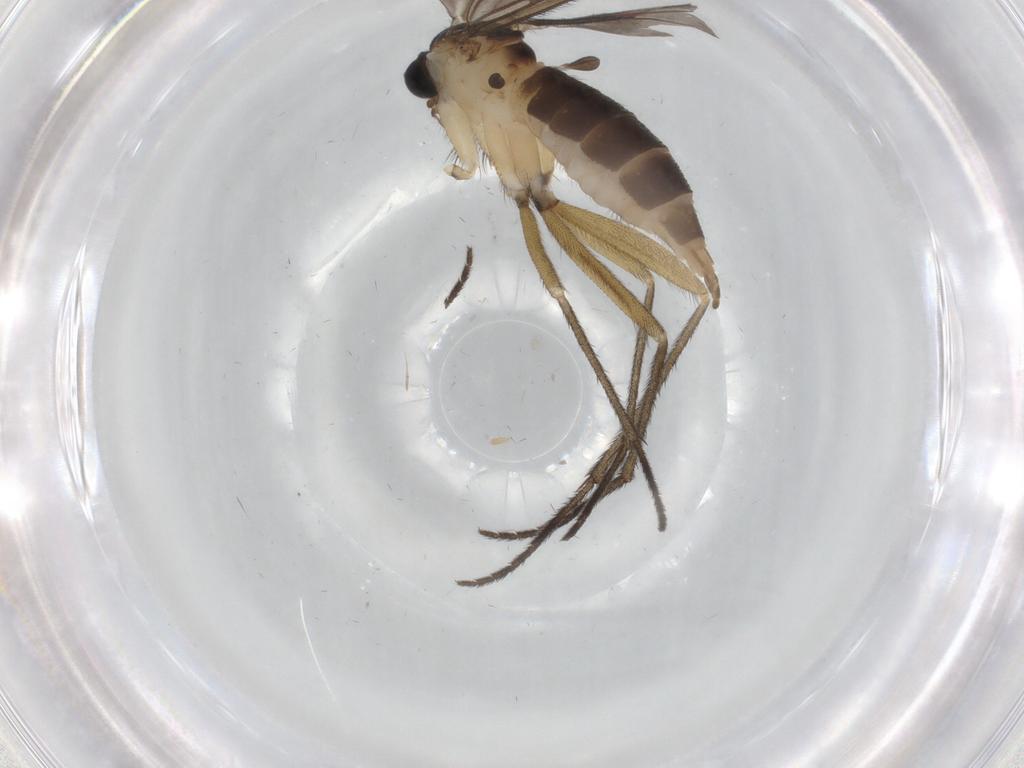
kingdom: Animalia
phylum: Arthropoda
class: Insecta
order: Diptera
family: Sciaridae
